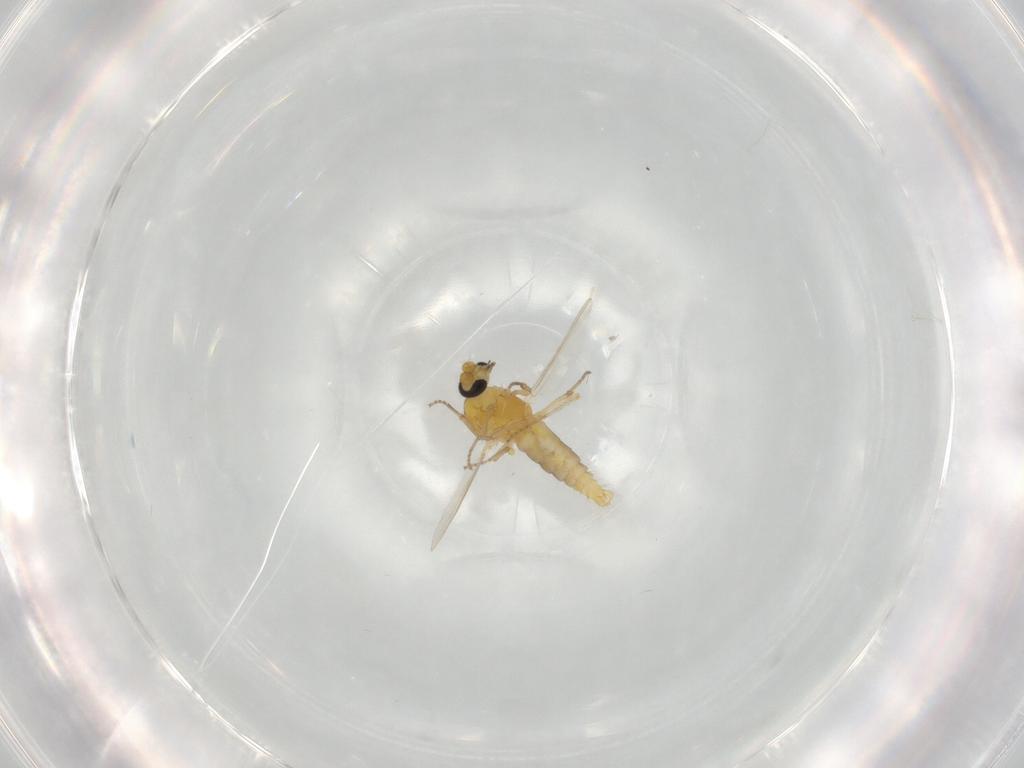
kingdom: Animalia
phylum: Arthropoda
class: Insecta
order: Diptera
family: Ceratopogonidae
